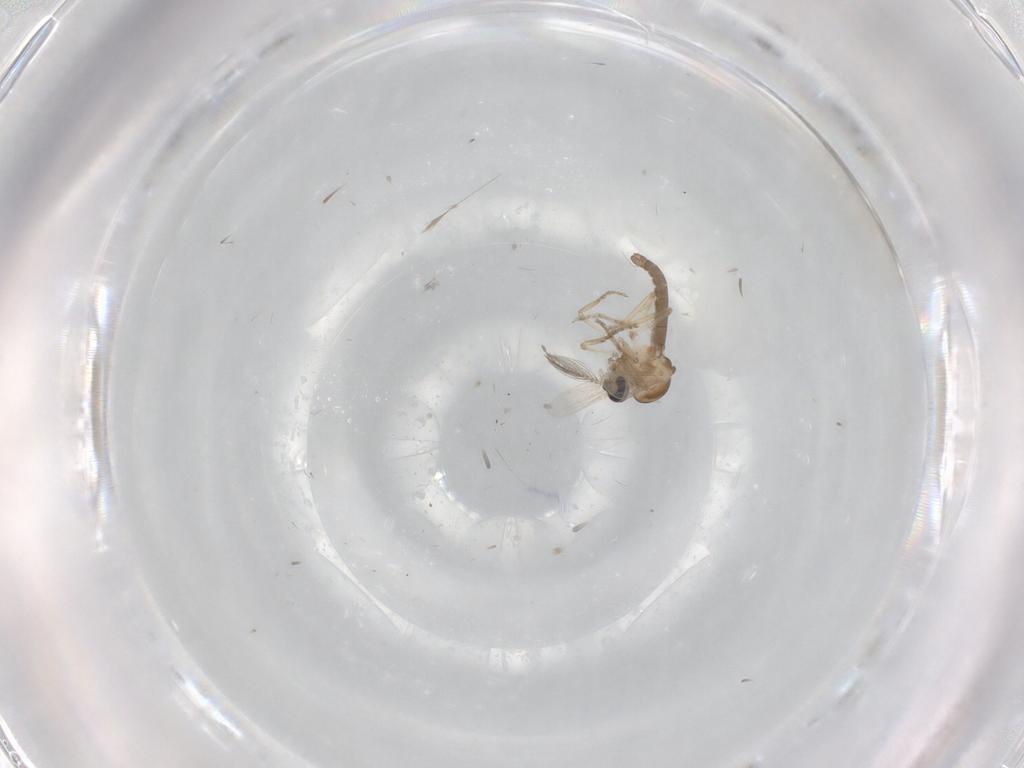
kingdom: Animalia
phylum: Arthropoda
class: Insecta
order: Diptera
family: Ceratopogonidae
